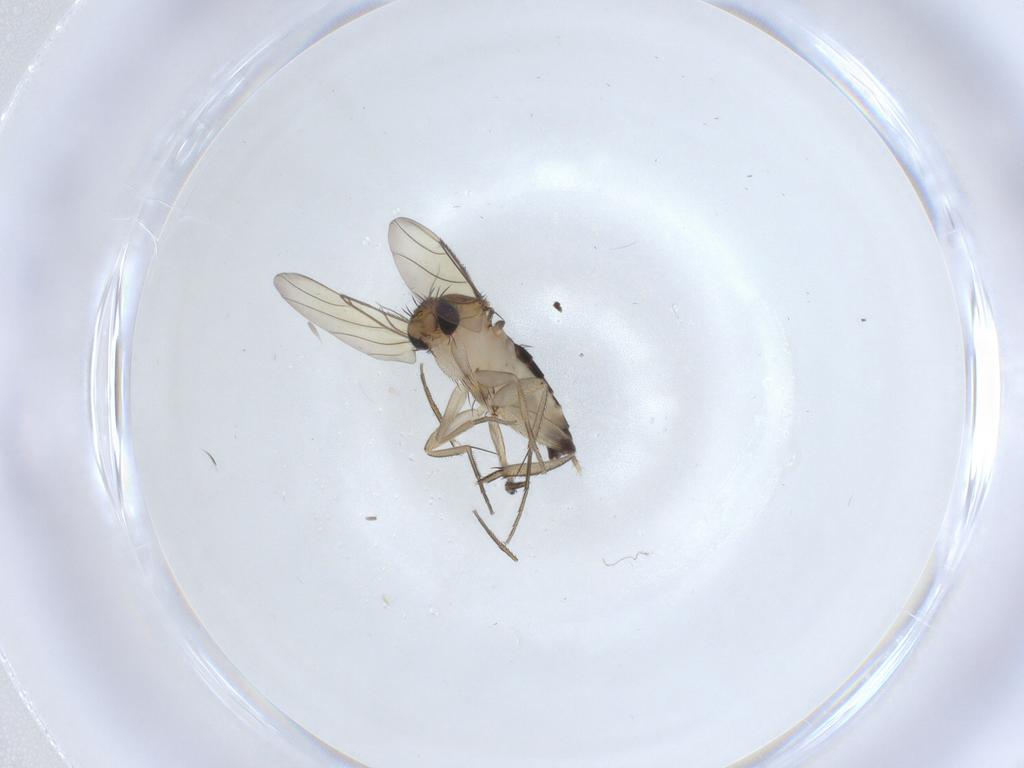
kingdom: Animalia
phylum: Arthropoda
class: Insecta
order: Diptera
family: Phoridae
